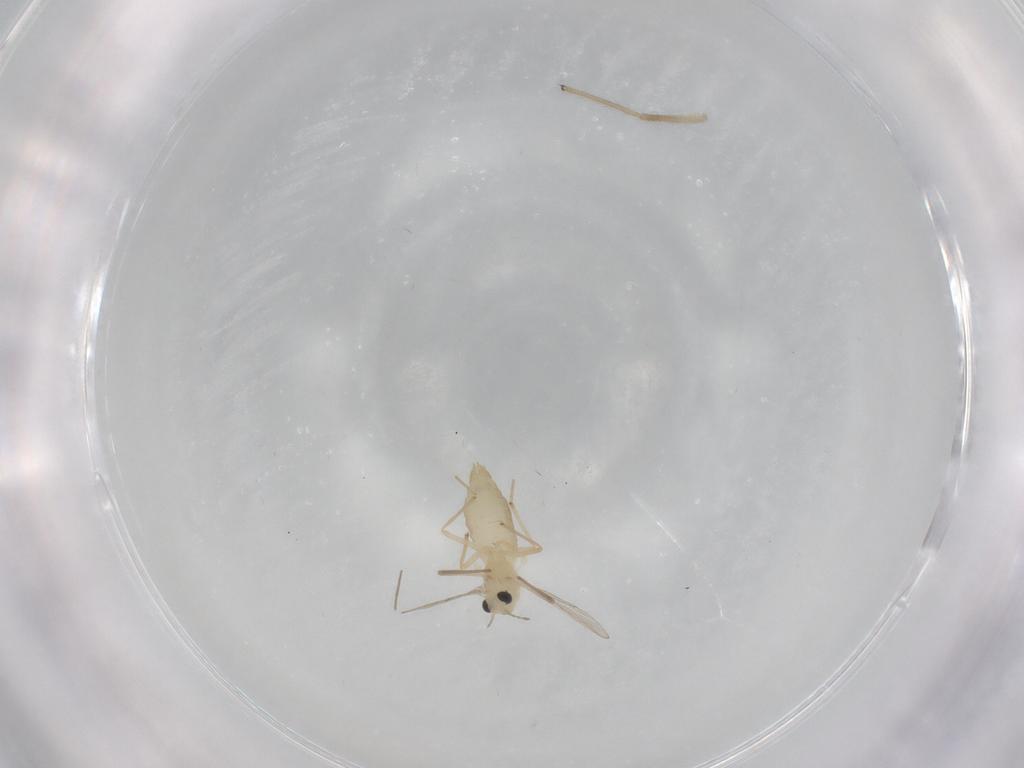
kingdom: Animalia
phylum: Arthropoda
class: Insecta
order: Diptera
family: Chironomidae
